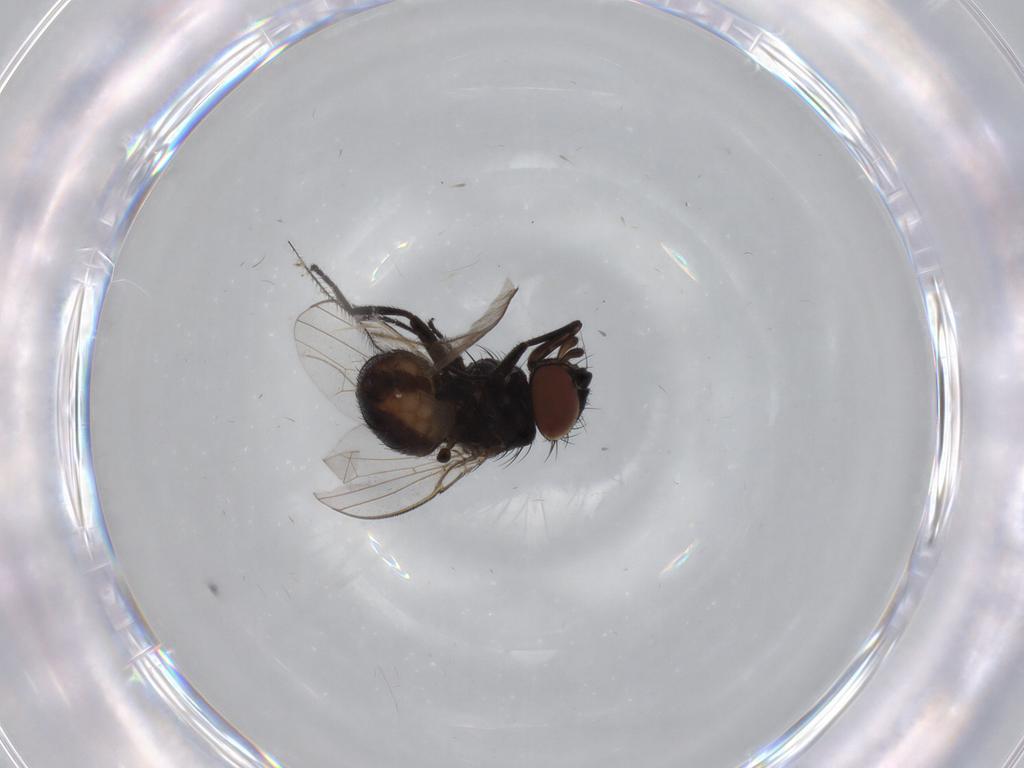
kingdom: Animalia
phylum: Arthropoda
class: Insecta
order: Diptera
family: Milichiidae
